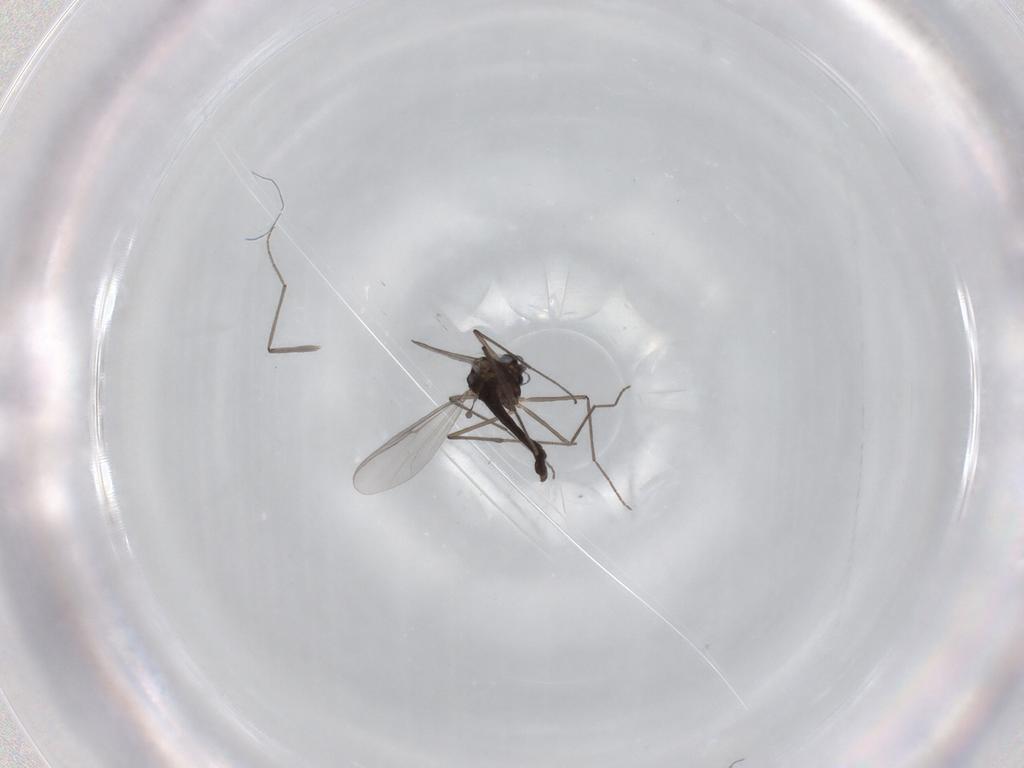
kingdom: Animalia
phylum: Arthropoda
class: Insecta
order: Diptera
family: Chironomidae
